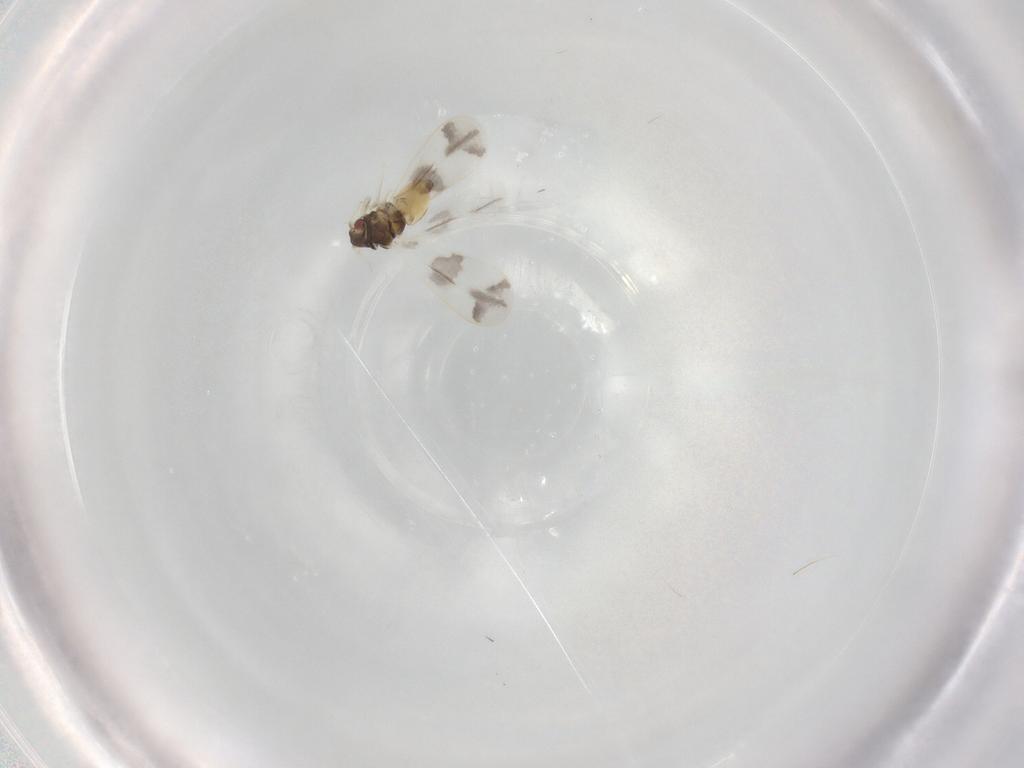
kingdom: Animalia
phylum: Arthropoda
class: Insecta
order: Hemiptera
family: Aleyrodidae
